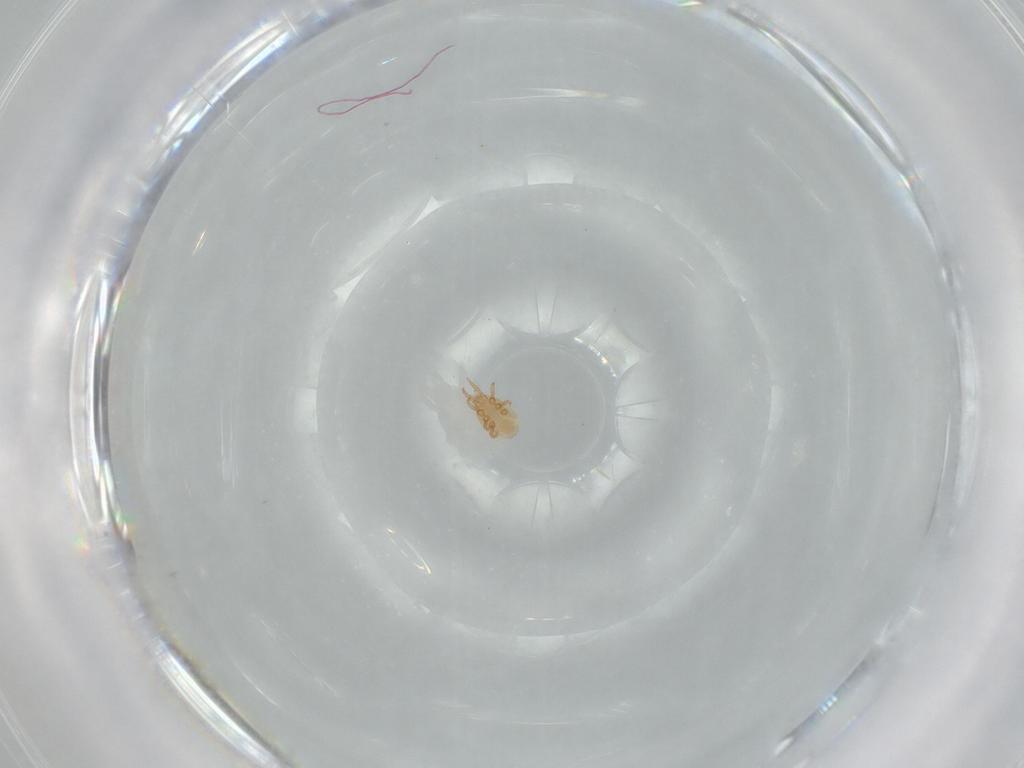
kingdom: Animalia
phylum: Arthropoda
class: Arachnida
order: Mesostigmata
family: Dinychidae
